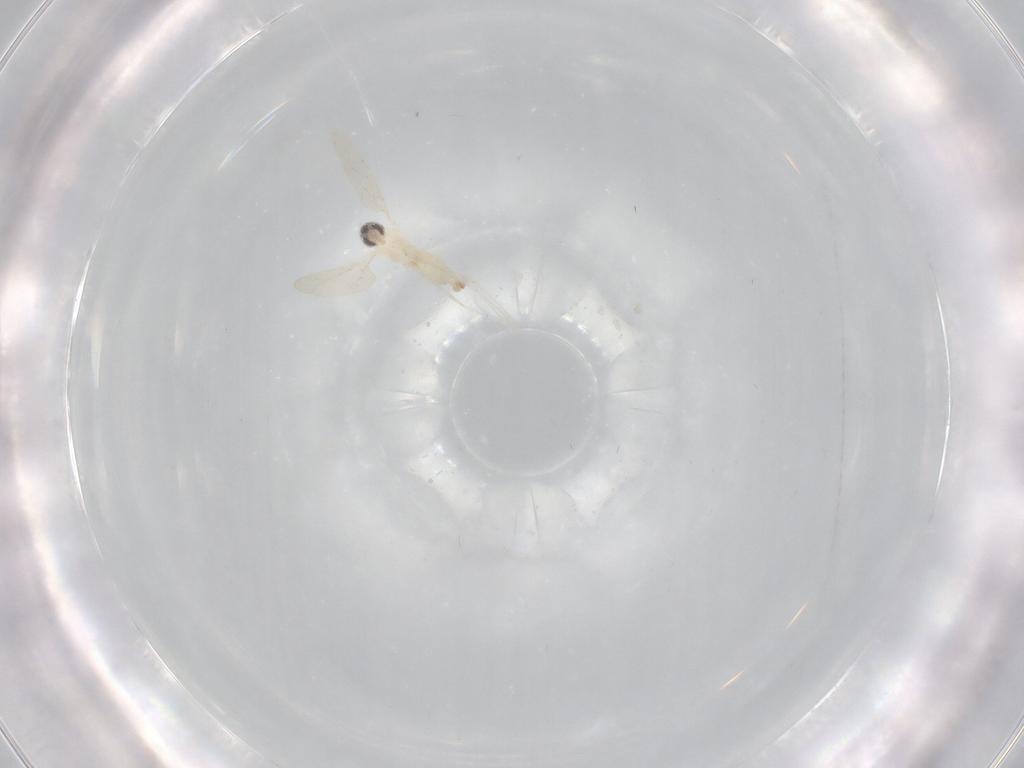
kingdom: Animalia
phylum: Arthropoda
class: Insecta
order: Diptera
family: Cecidomyiidae
